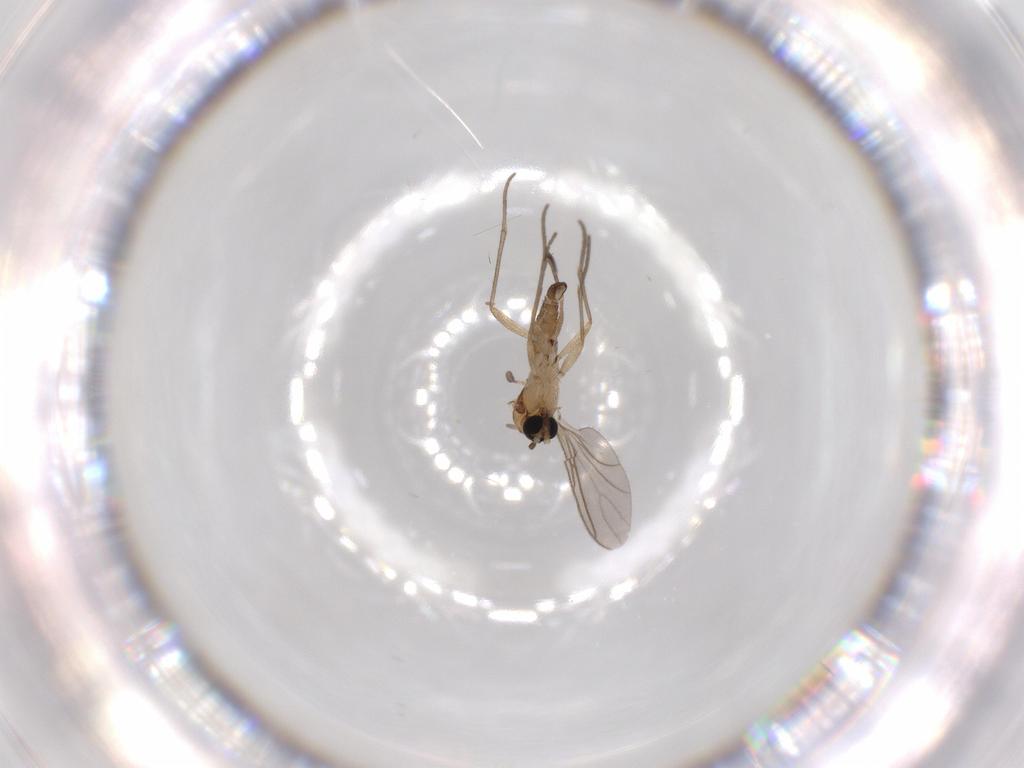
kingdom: Animalia
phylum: Arthropoda
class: Insecta
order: Diptera
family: Sciaridae
